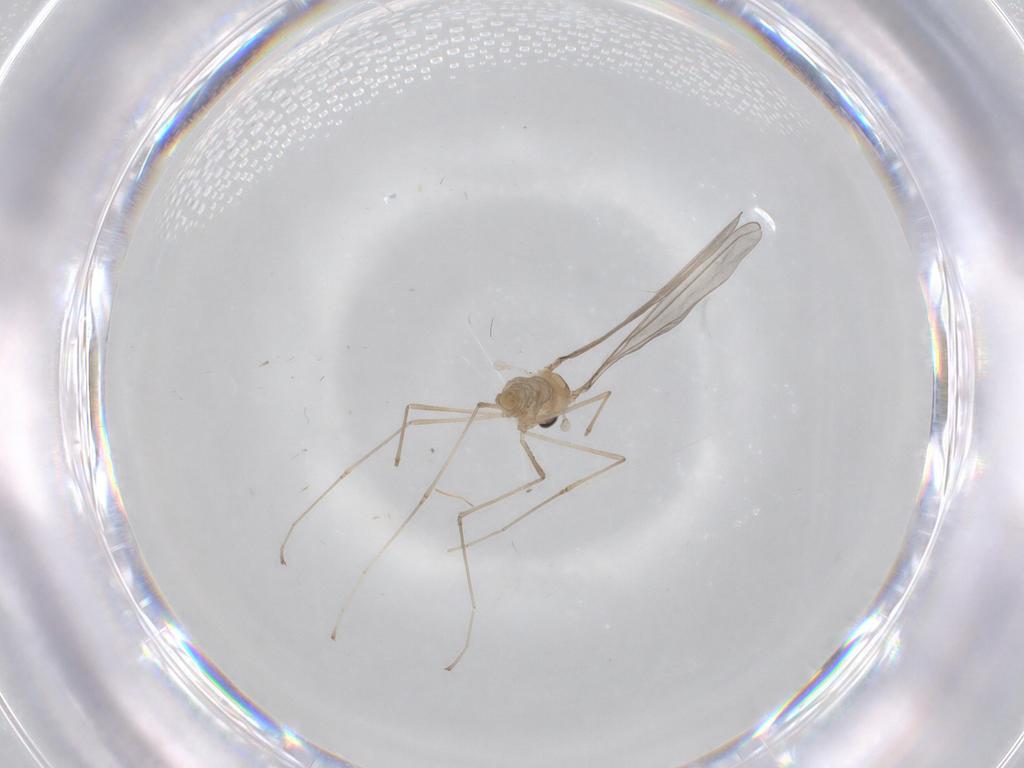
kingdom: Animalia
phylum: Arthropoda
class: Insecta
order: Diptera
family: Cecidomyiidae
